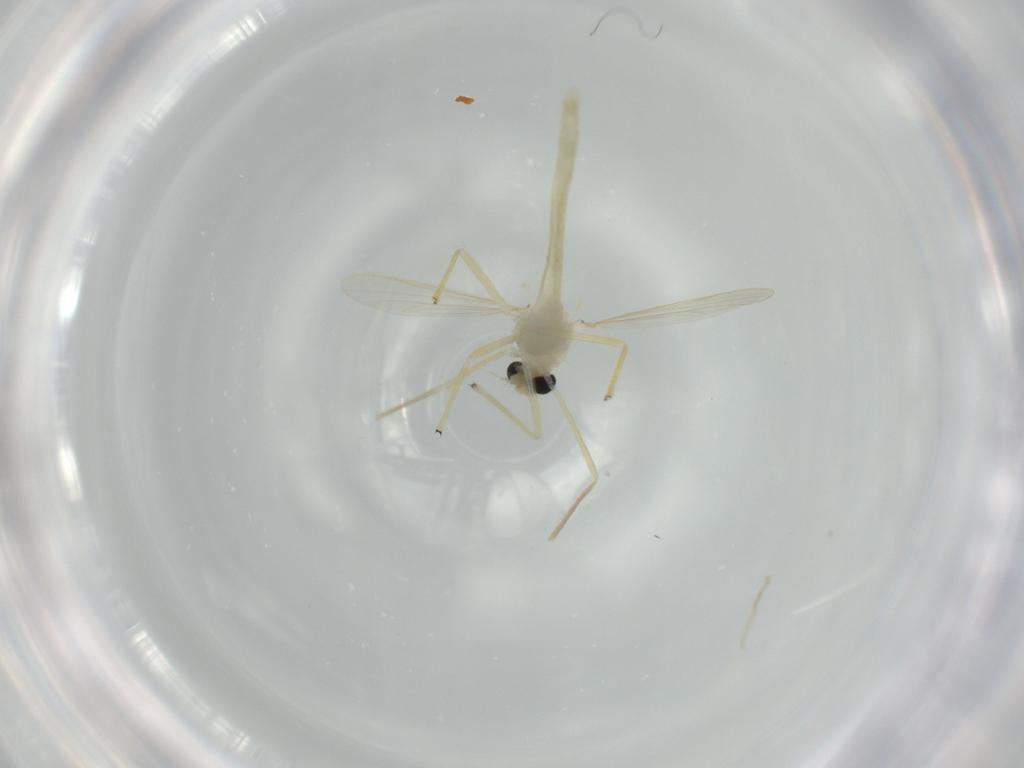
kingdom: Animalia
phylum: Arthropoda
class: Insecta
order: Diptera
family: Chironomidae
